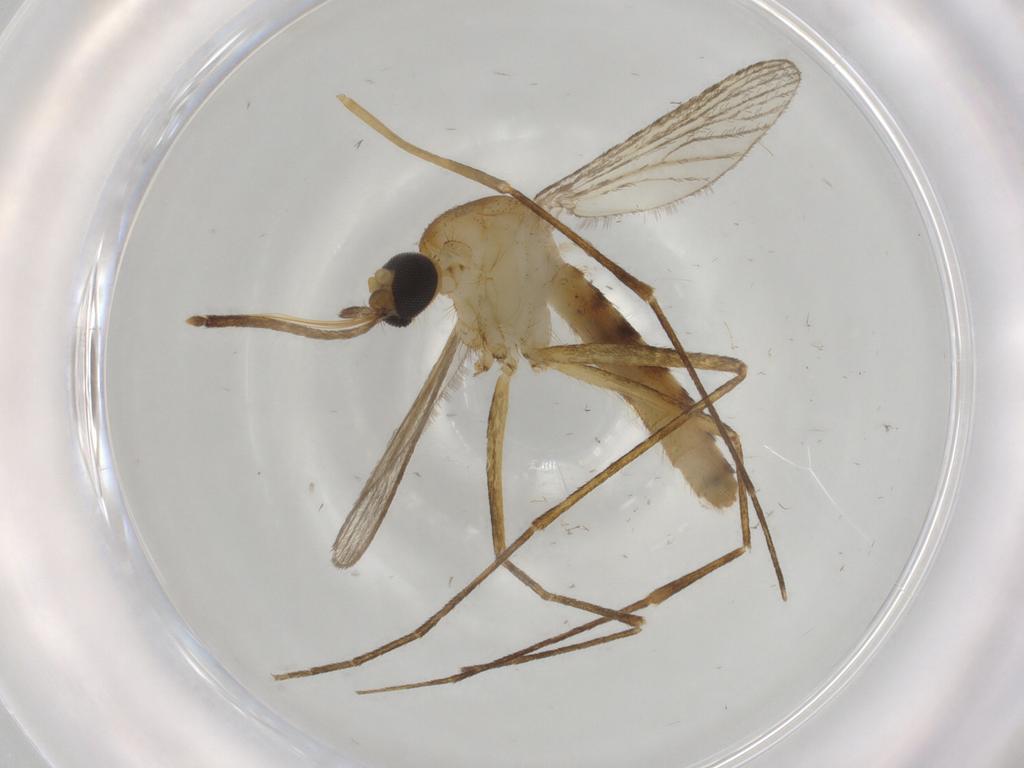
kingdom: Animalia
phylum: Arthropoda
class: Insecta
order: Diptera
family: Culicidae
